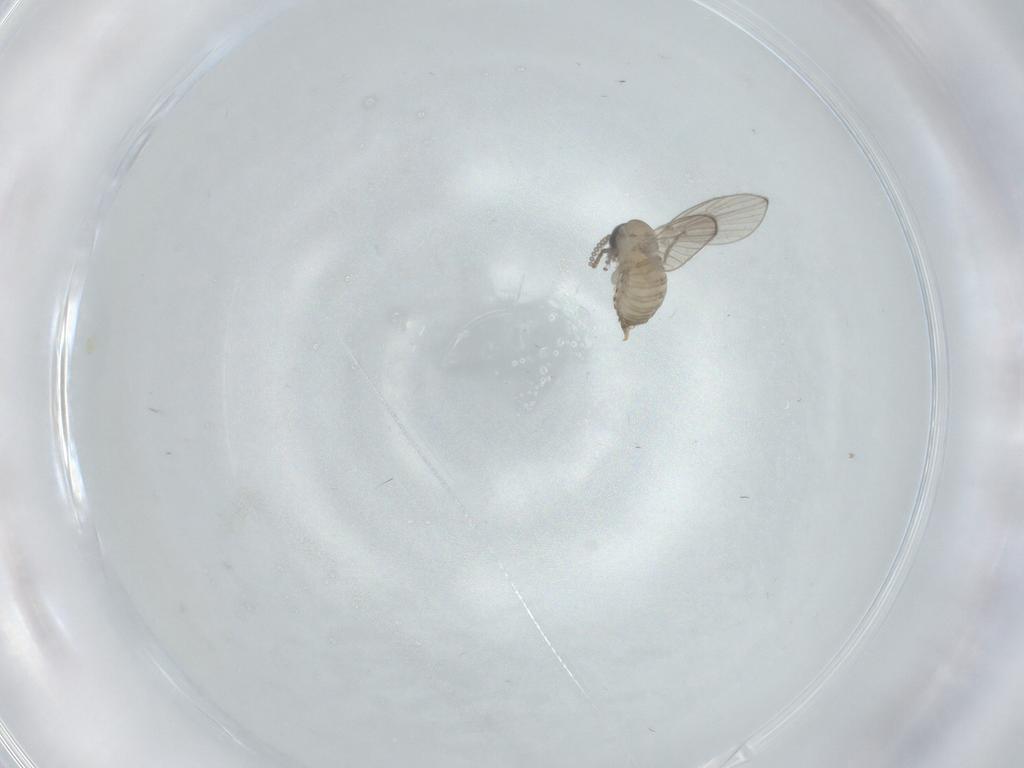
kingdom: Animalia
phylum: Arthropoda
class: Insecta
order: Diptera
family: Psychodidae
